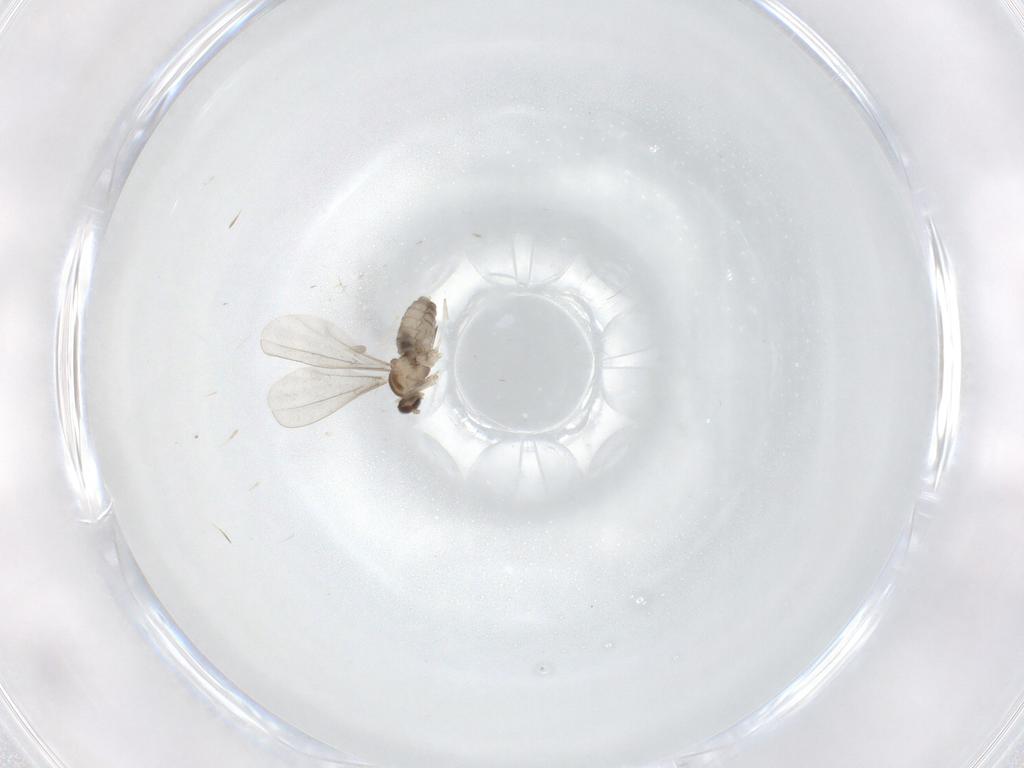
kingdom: Animalia
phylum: Arthropoda
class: Insecta
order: Diptera
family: Cecidomyiidae
